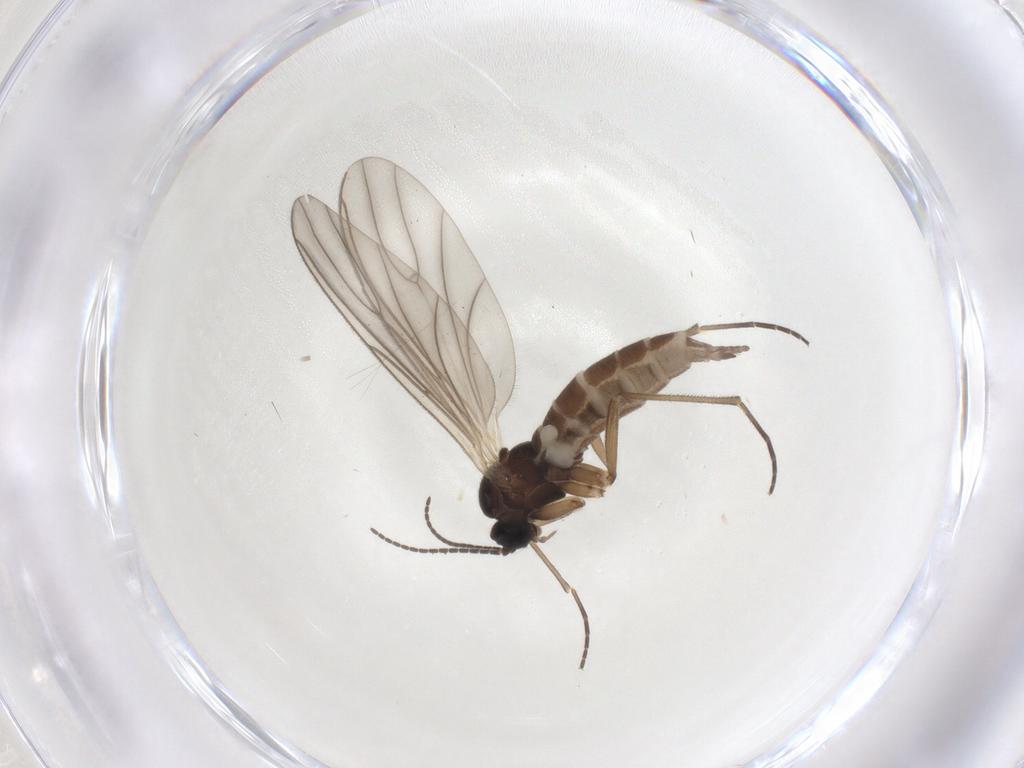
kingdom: Animalia
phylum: Arthropoda
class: Insecta
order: Diptera
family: Sciaridae
